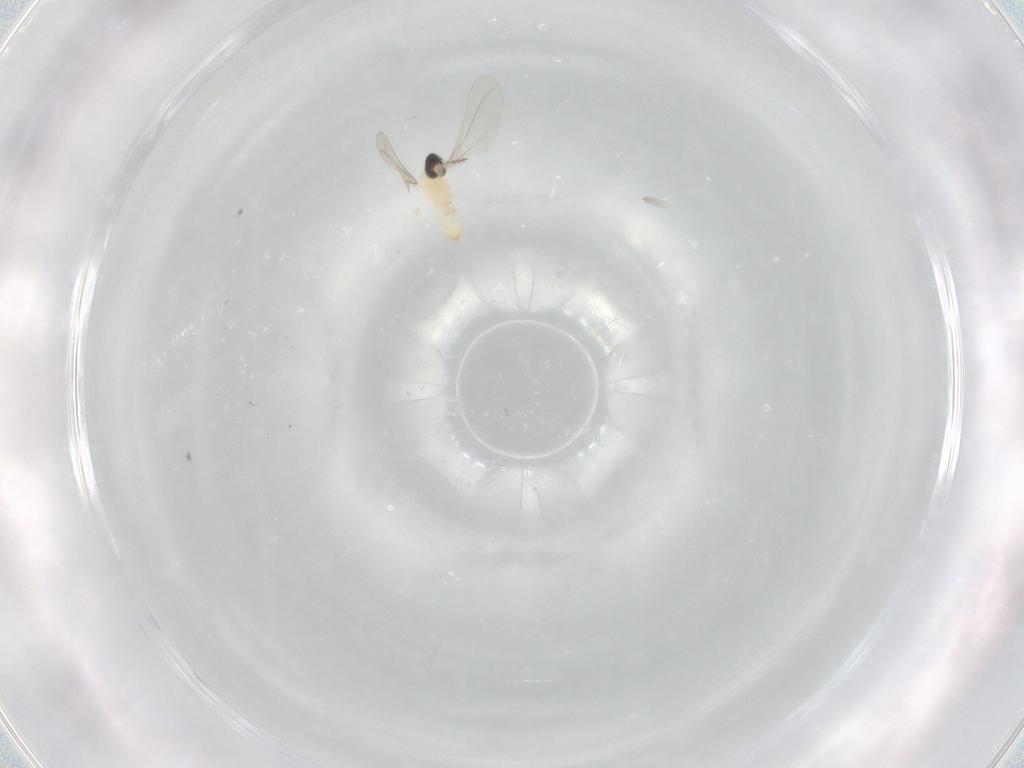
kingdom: Animalia
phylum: Arthropoda
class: Insecta
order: Diptera
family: Cecidomyiidae
